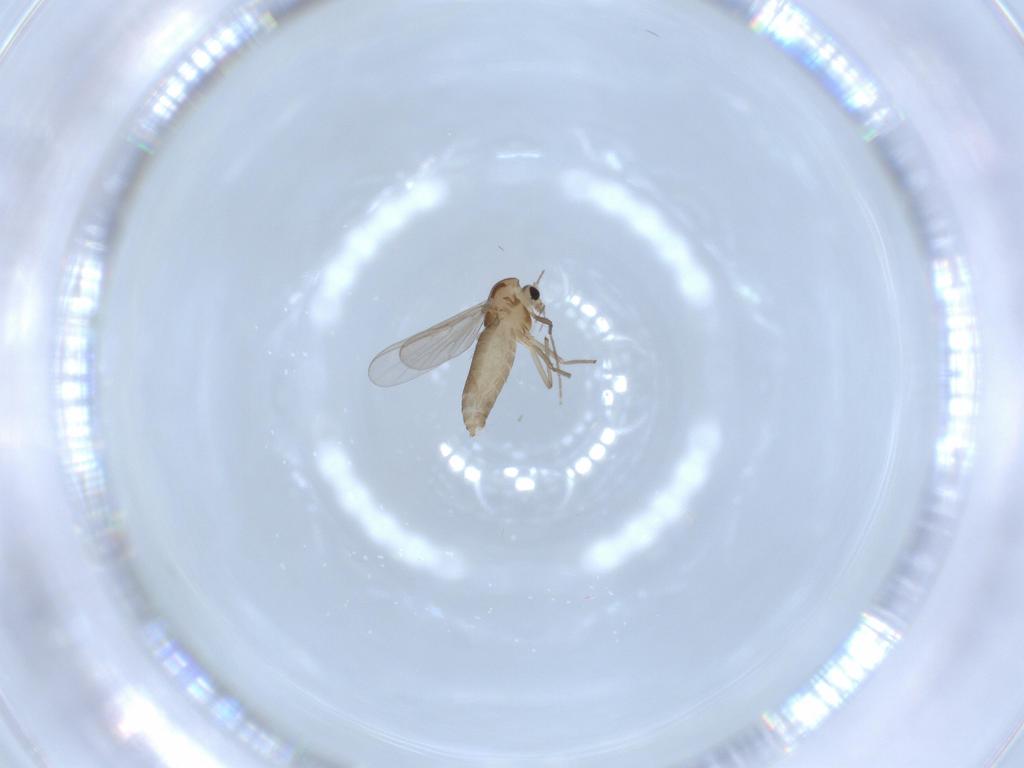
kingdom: Animalia
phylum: Arthropoda
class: Insecta
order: Diptera
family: Chironomidae
